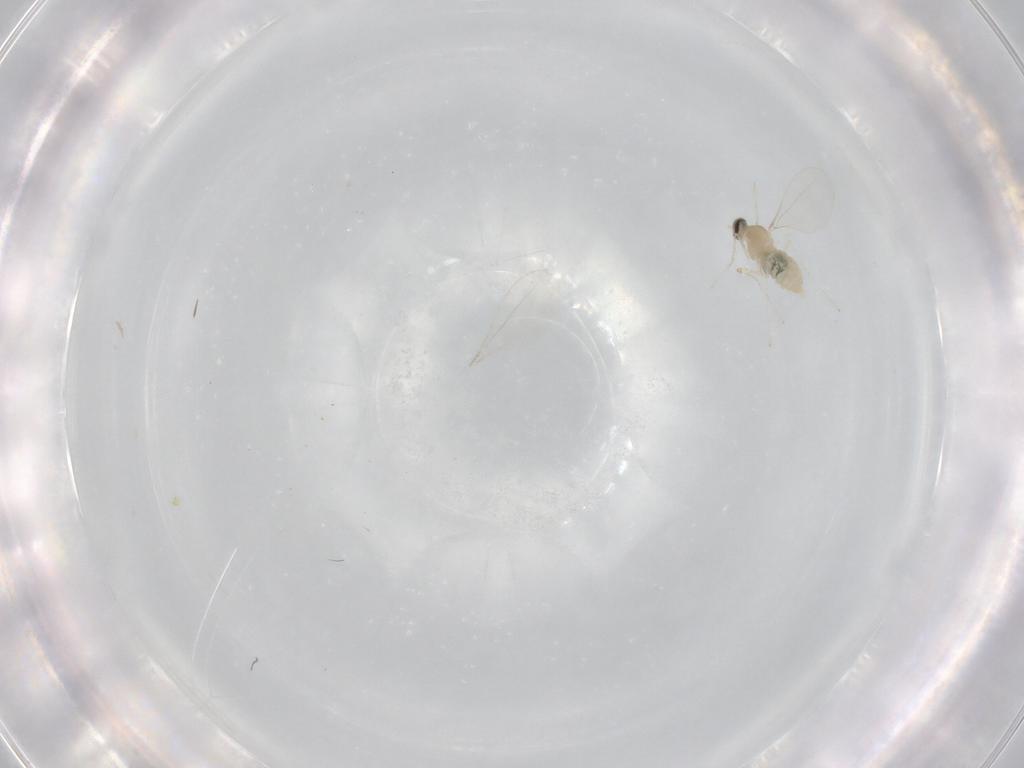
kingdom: Animalia
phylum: Arthropoda
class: Insecta
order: Diptera
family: Cecidomyiidae
